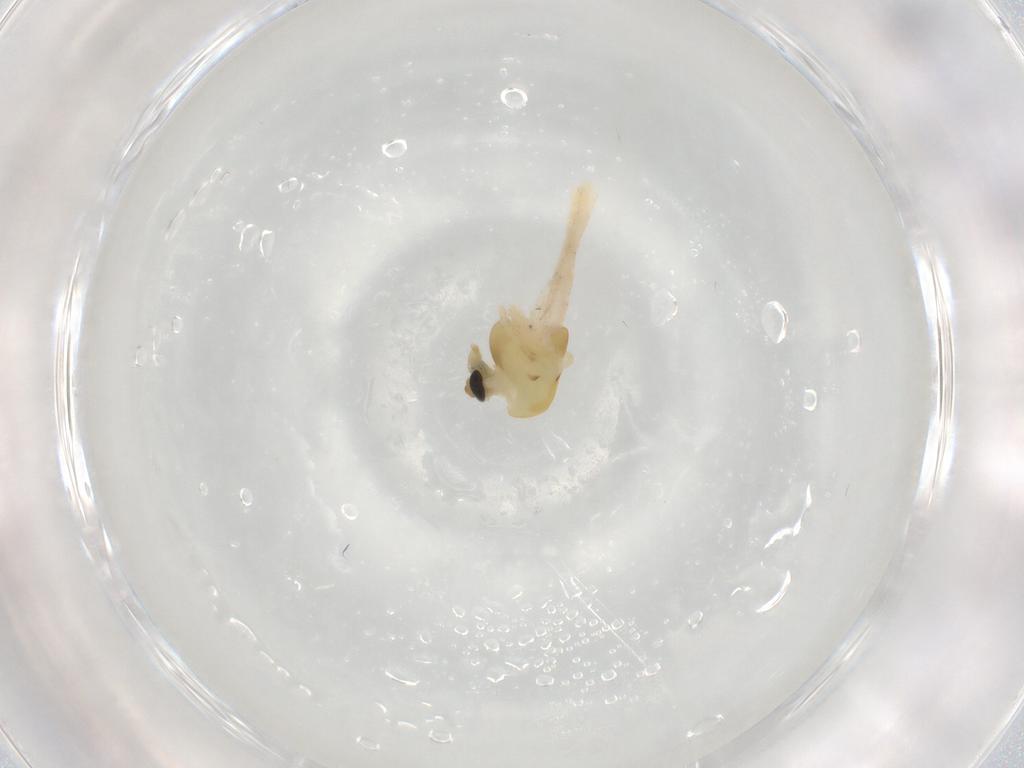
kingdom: Animalia
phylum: Arthropoda
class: Insecta
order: Diptera
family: Chironomidae
